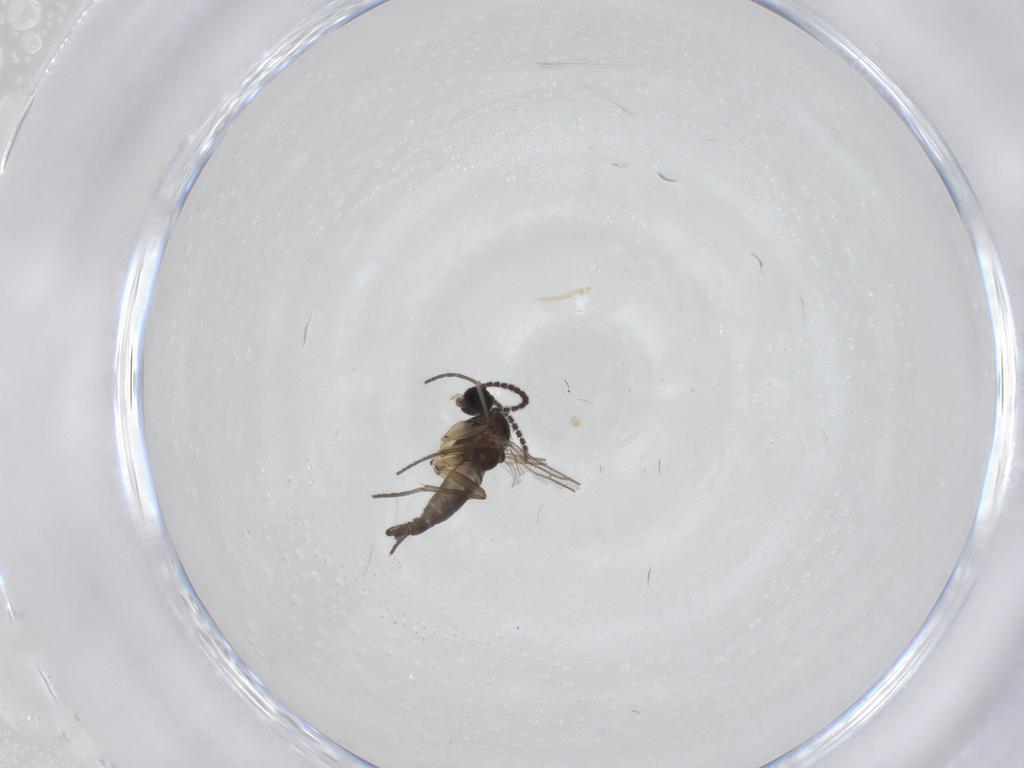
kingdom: Animalia
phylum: Arthropoda
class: Insecta
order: Diptera
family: Sciaridae
